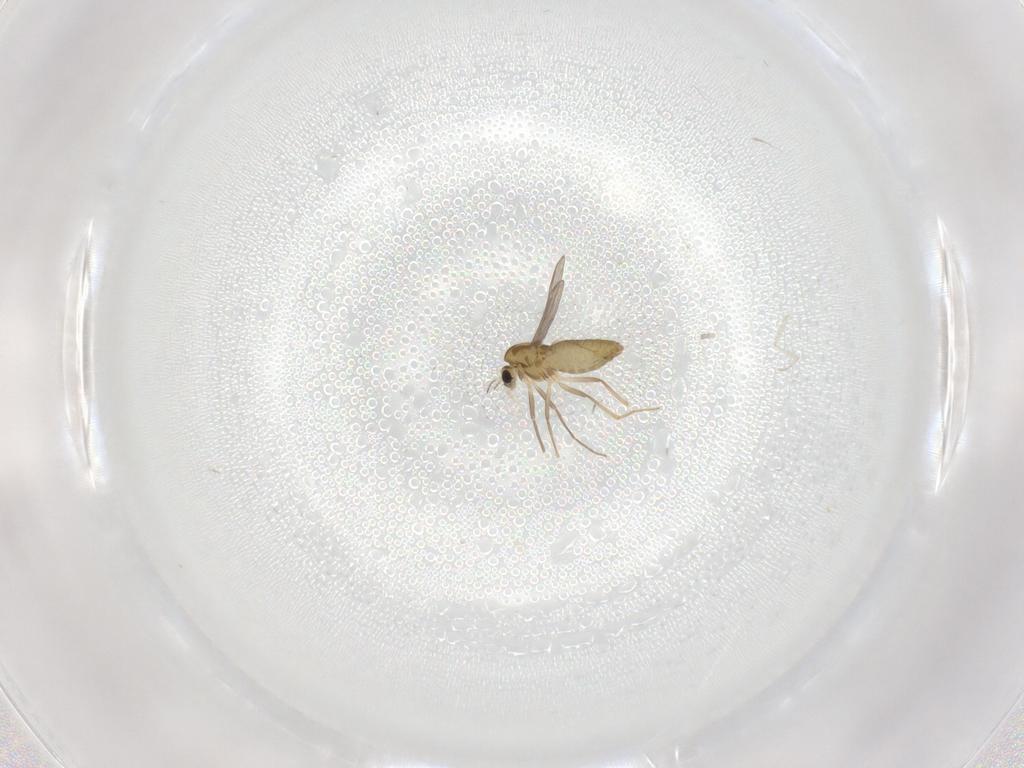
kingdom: Animalia
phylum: Arthropoda
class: Insecta
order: Diptera
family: Chironomidae
